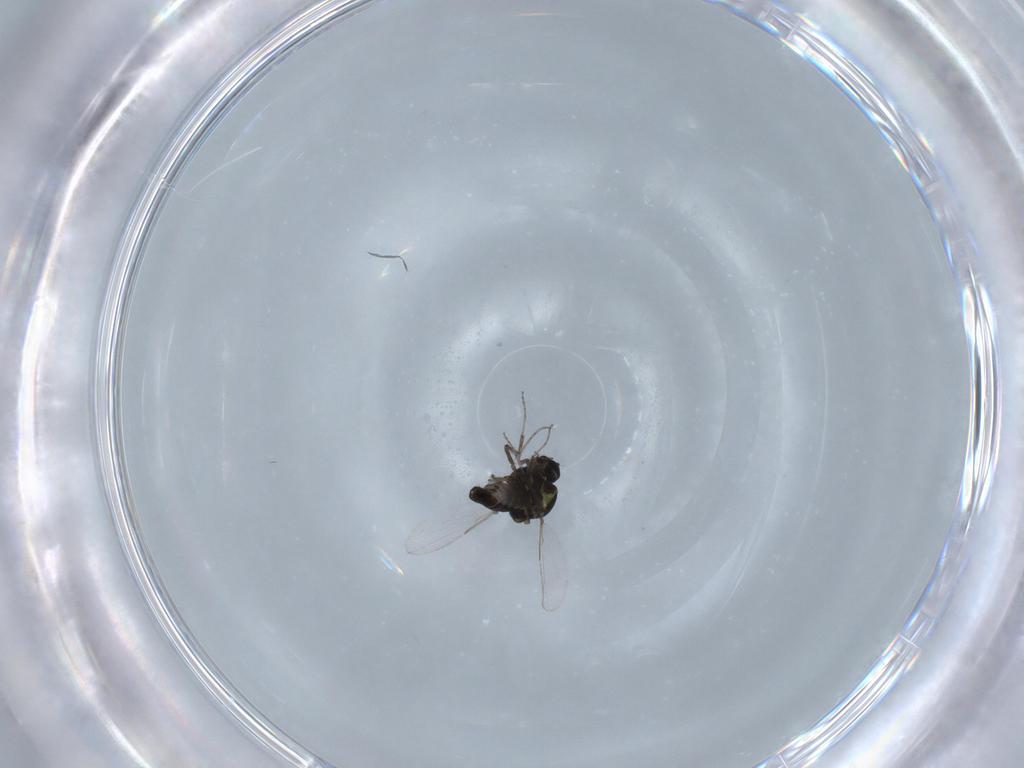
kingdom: Animalia
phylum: Arthropoda
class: Insecta
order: Diptera
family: Ceratopogonidae
